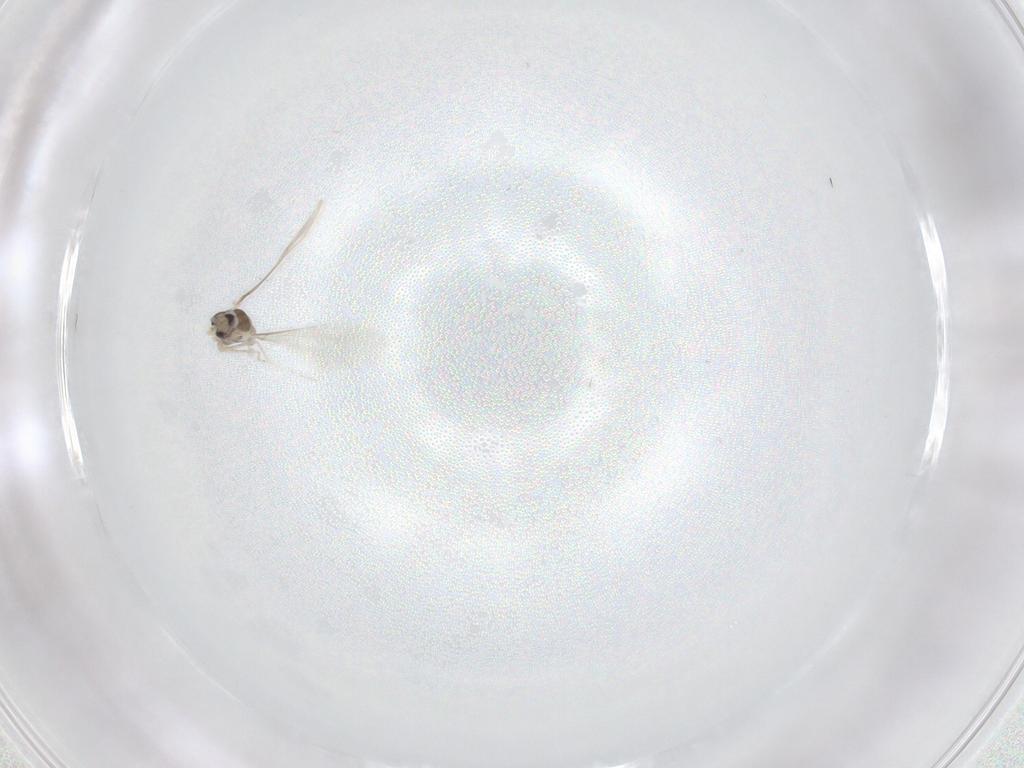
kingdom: Animalia
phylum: Arthropoda
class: Insecta
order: Diptera
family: Cecidomyiidae
